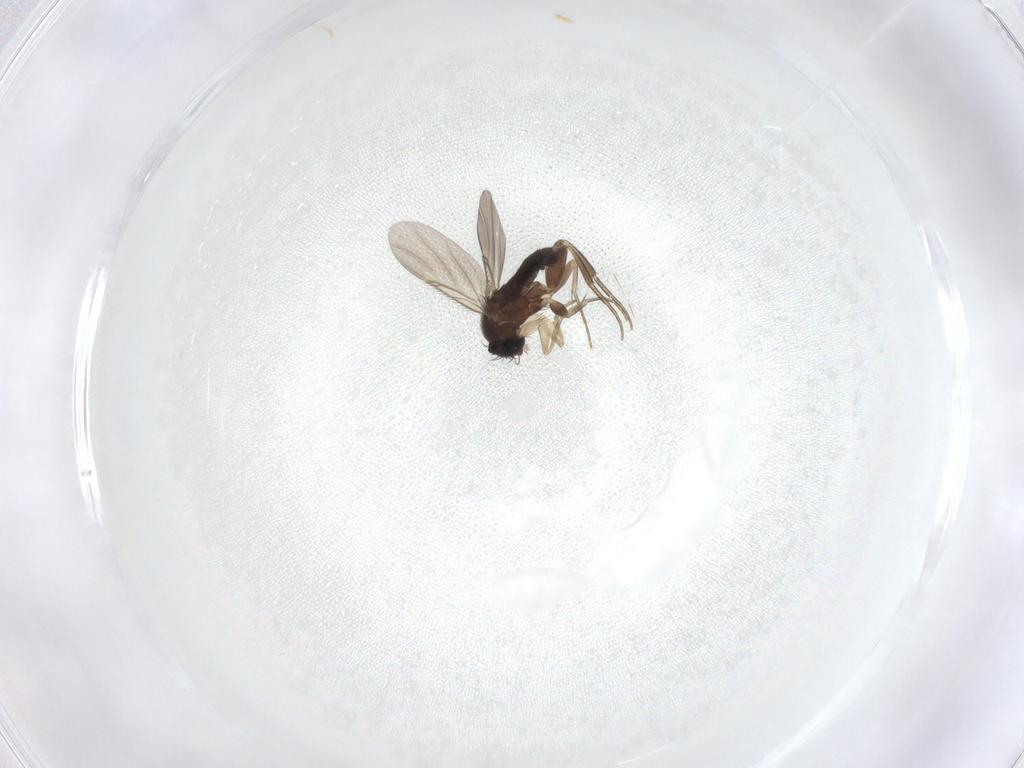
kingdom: Animalia
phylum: Arthropoda
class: Insecta
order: Diptera
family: Phoridae
